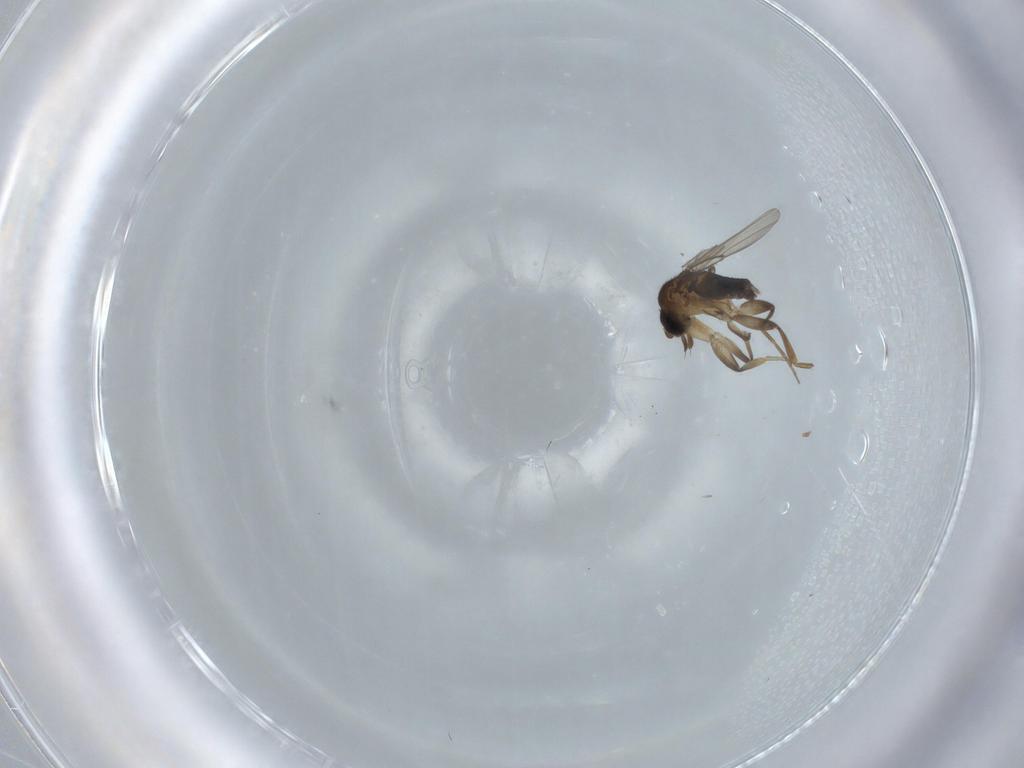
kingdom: Animalia
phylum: Arthropoda
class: Insecta
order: Diptera
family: Phoridae
